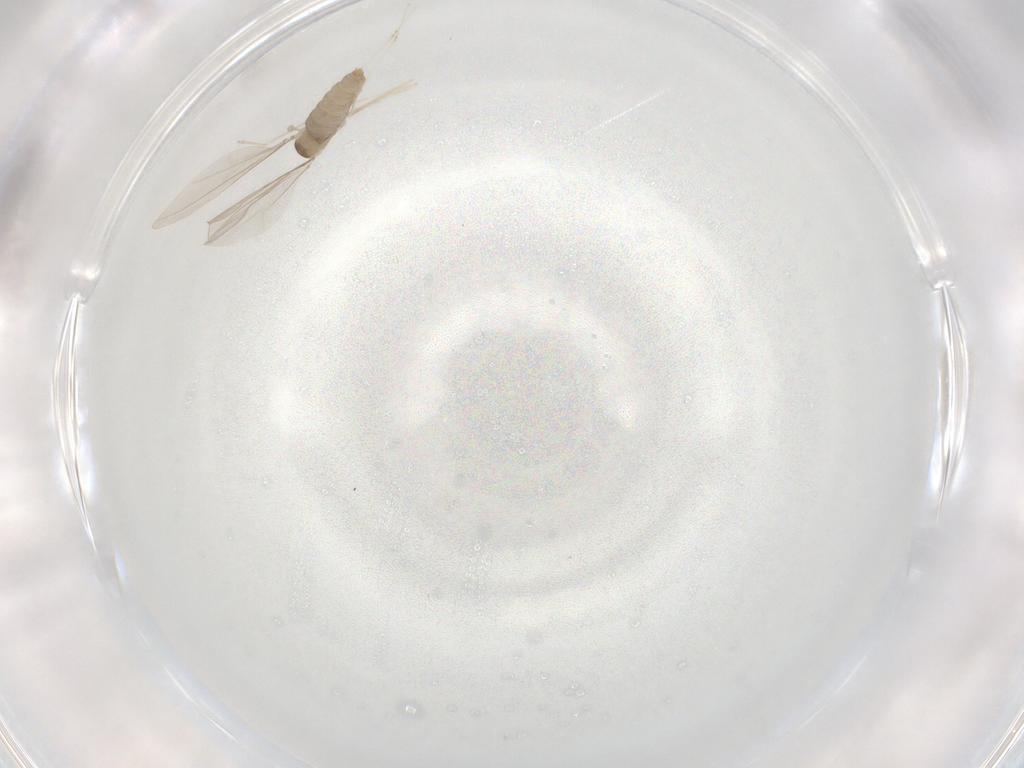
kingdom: Animalia
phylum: Arthropoda
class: Insecta
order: Diptera
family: Cecidomyiidae
